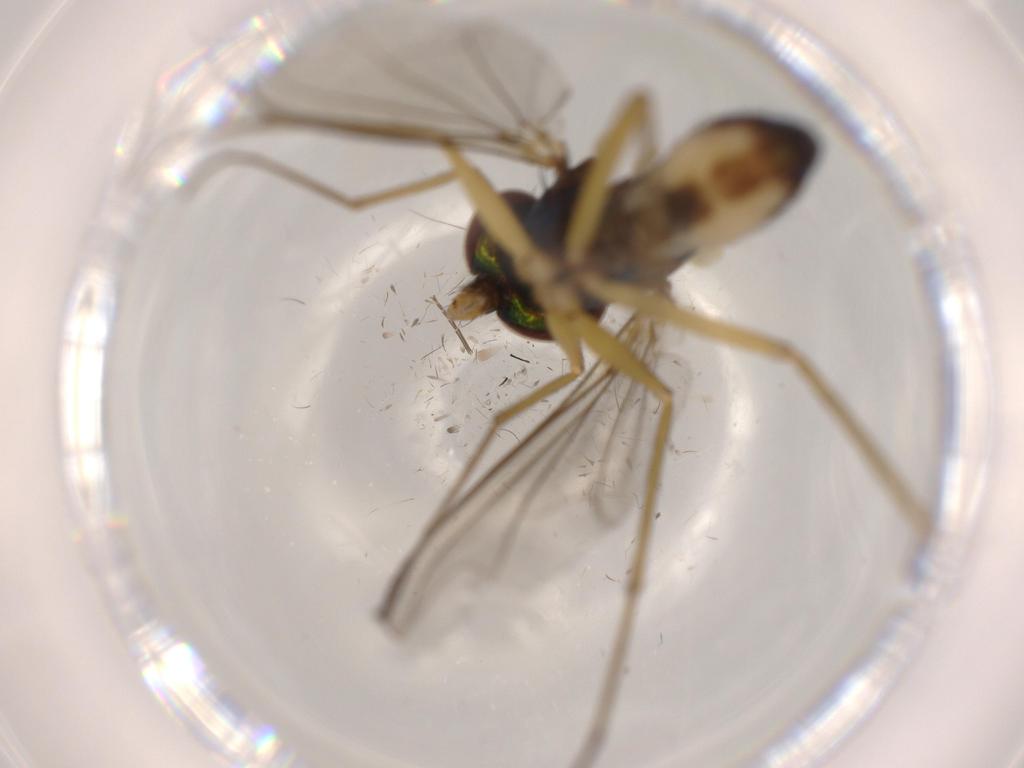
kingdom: Animalia
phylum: Arthropoda
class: Insecta
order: Diptera
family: Dolichopodidae
